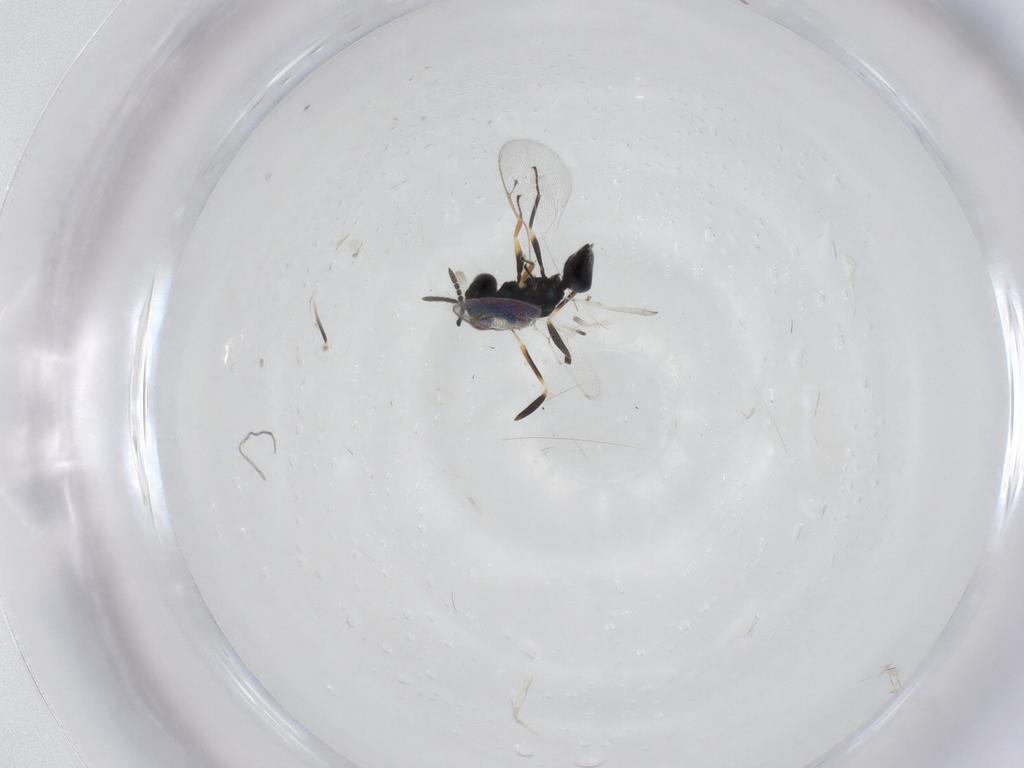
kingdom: Animalia
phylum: Arthropoda
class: Insecta
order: Hymenoptera
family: Pteromalidae
